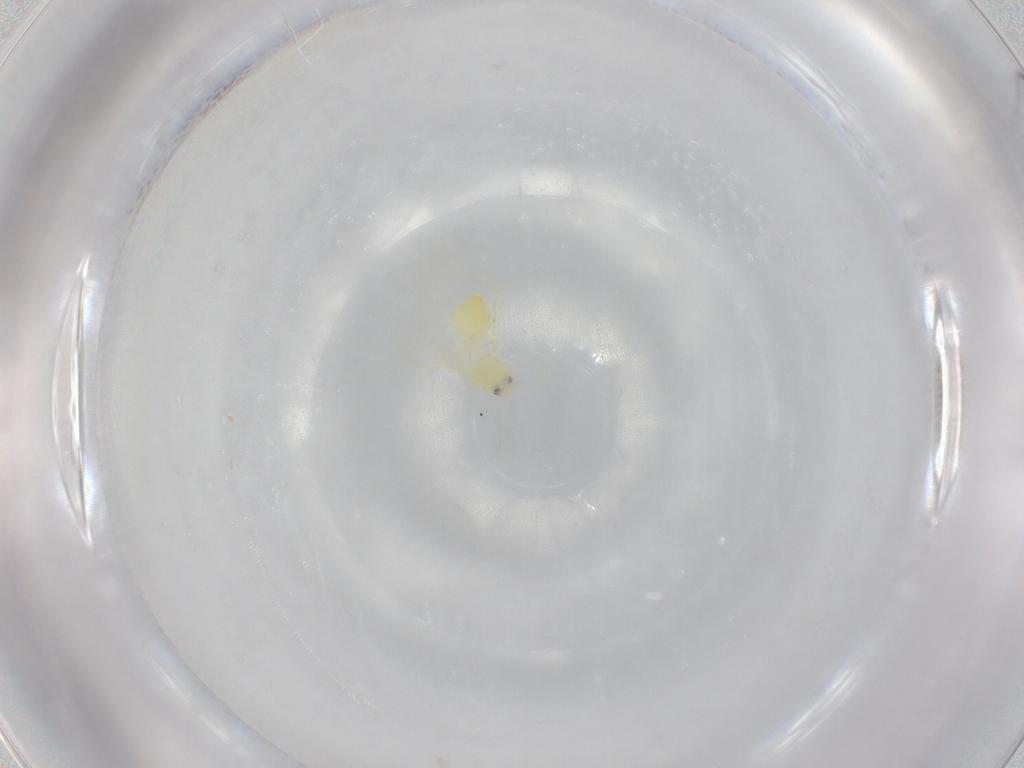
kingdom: Animalia
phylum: Arthropoda
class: Insecta
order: Hemiptera
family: Aleyrodidae
